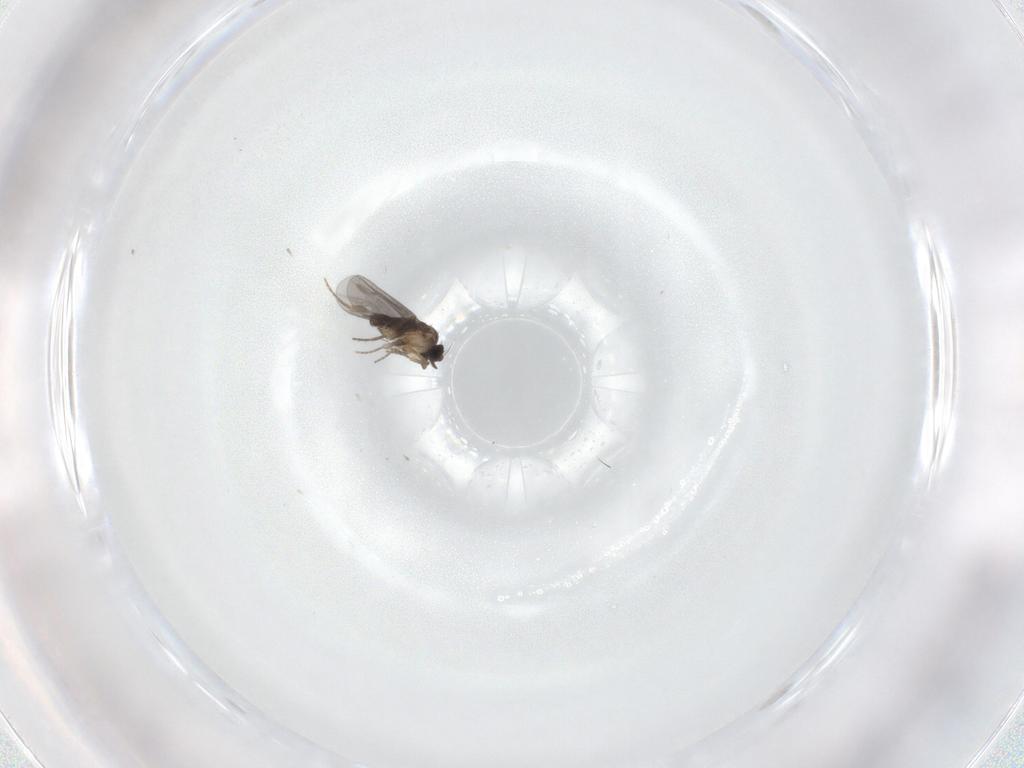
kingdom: Animalia
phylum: Arthropoda
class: Insecta
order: Diptera
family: Psychodidae
